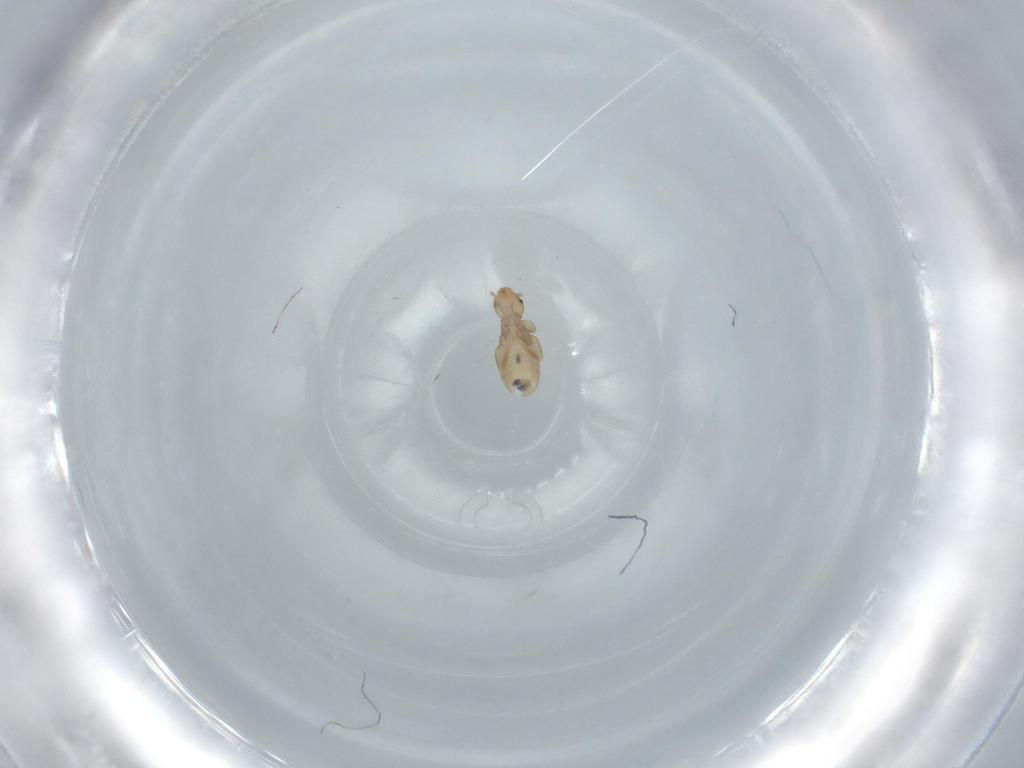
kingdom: Animalia
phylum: Arthropoda
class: Insecta
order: Psocodea
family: Liposcelididae
